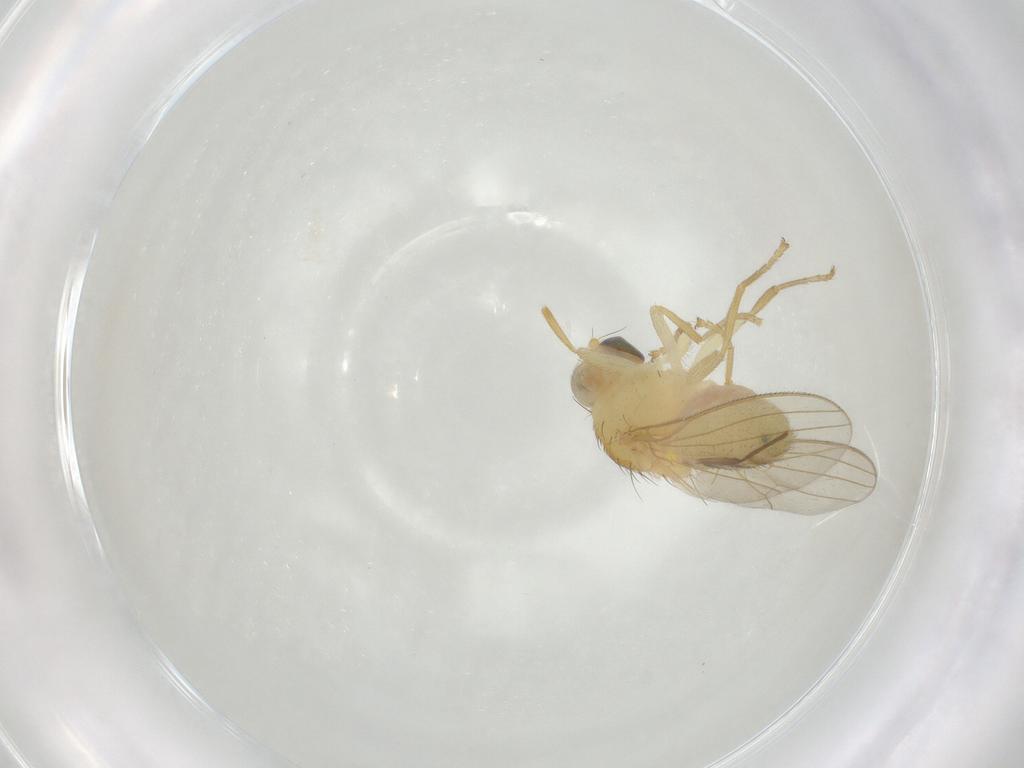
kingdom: Animalia
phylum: Arthropoda
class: Insecta
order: Diptera
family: Chyromyidae
